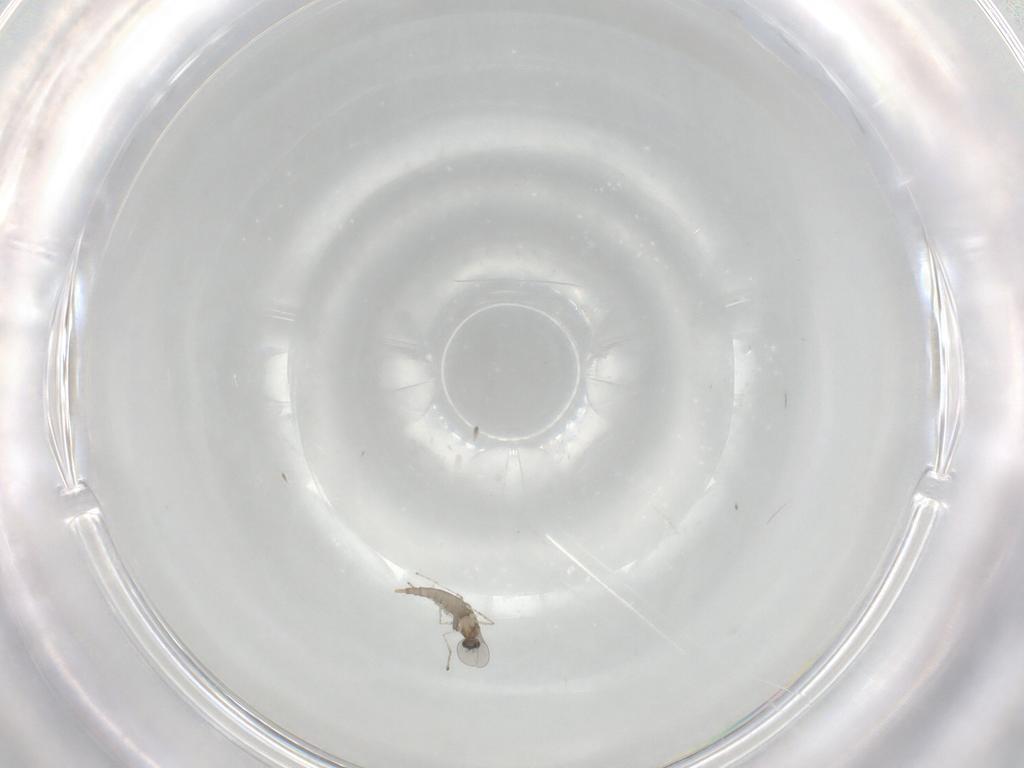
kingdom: Animalia
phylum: Arthropoda
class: Insecta
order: Diptera
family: Cecidomyiidae
